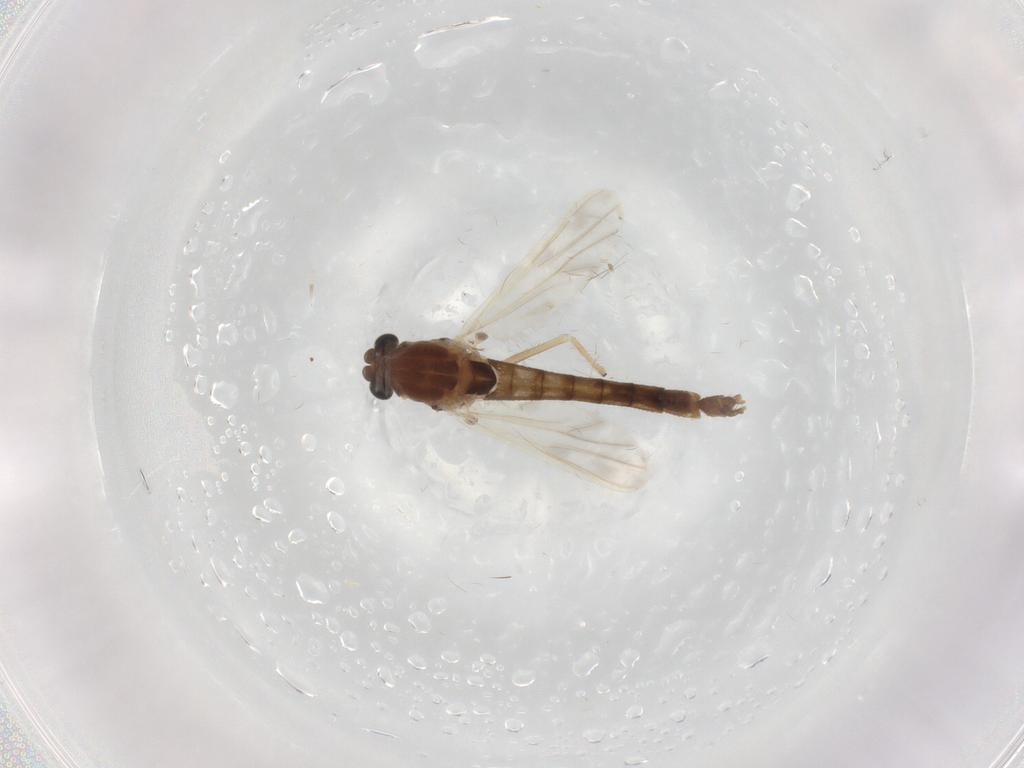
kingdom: Animalia
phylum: Arthropoda
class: Insecta
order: Diptera
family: Chironomidae
